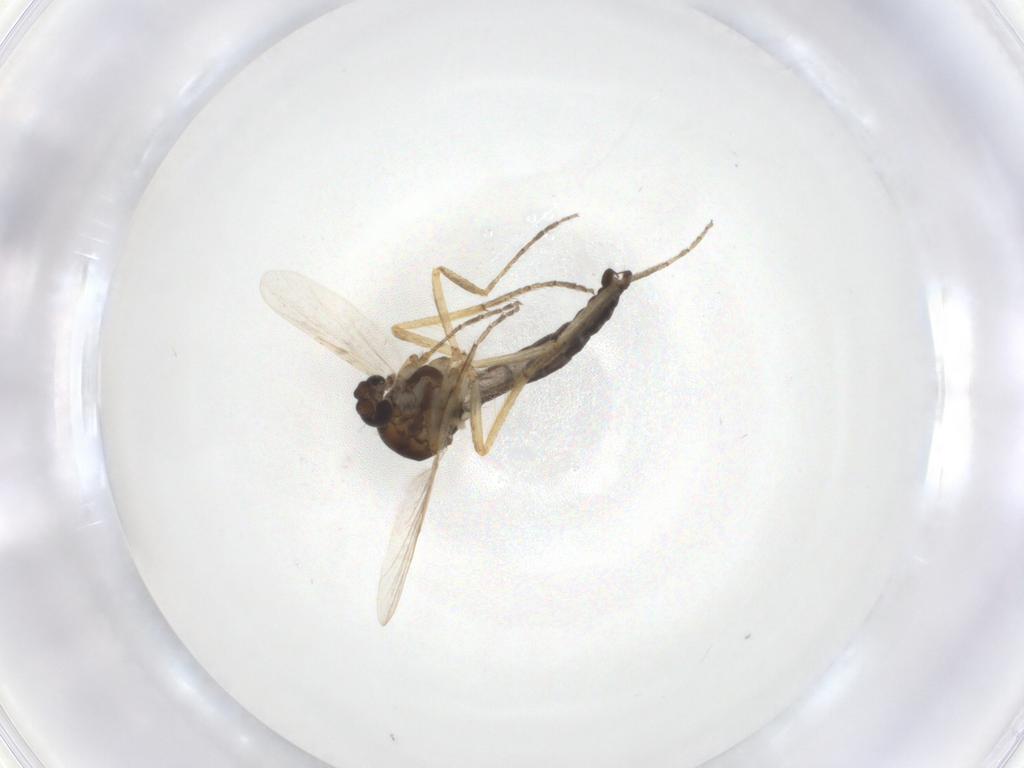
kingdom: Animalia
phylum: Arthropoda
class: Insecta
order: Diptera
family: Ceratopogonidae
